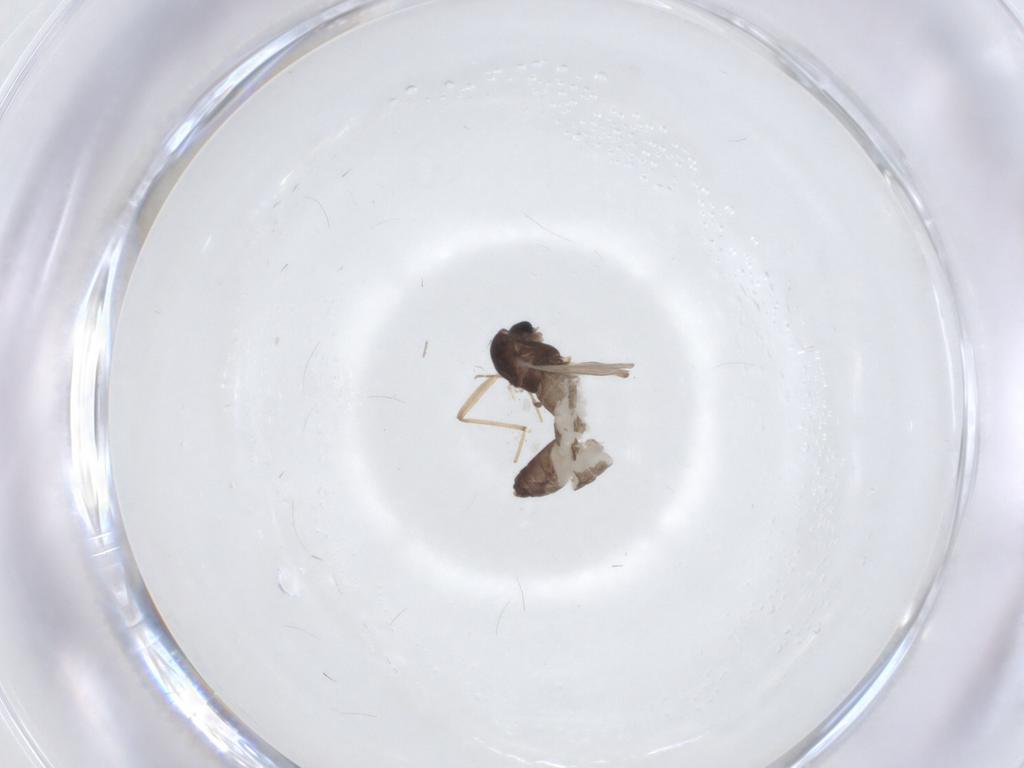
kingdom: Animalia
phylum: Arthropoda
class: Insecta
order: Diptera
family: Chironomidae
